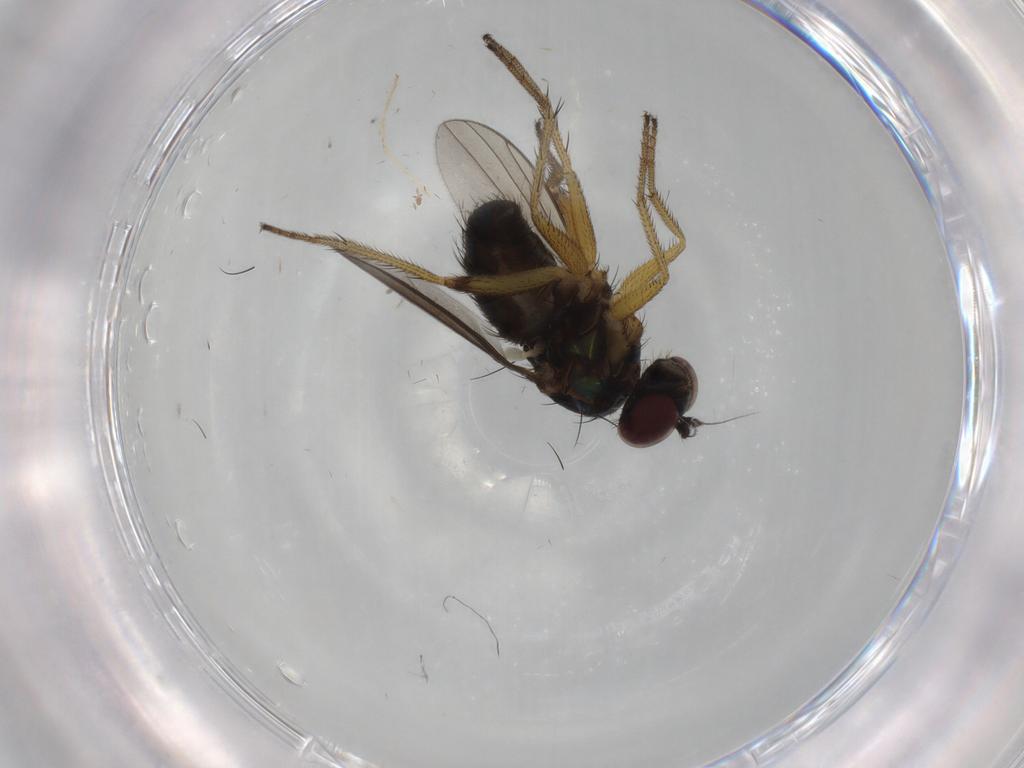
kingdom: Animalia
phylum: Arthropoda
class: Insecta
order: Diptera
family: Dolichopodidae
